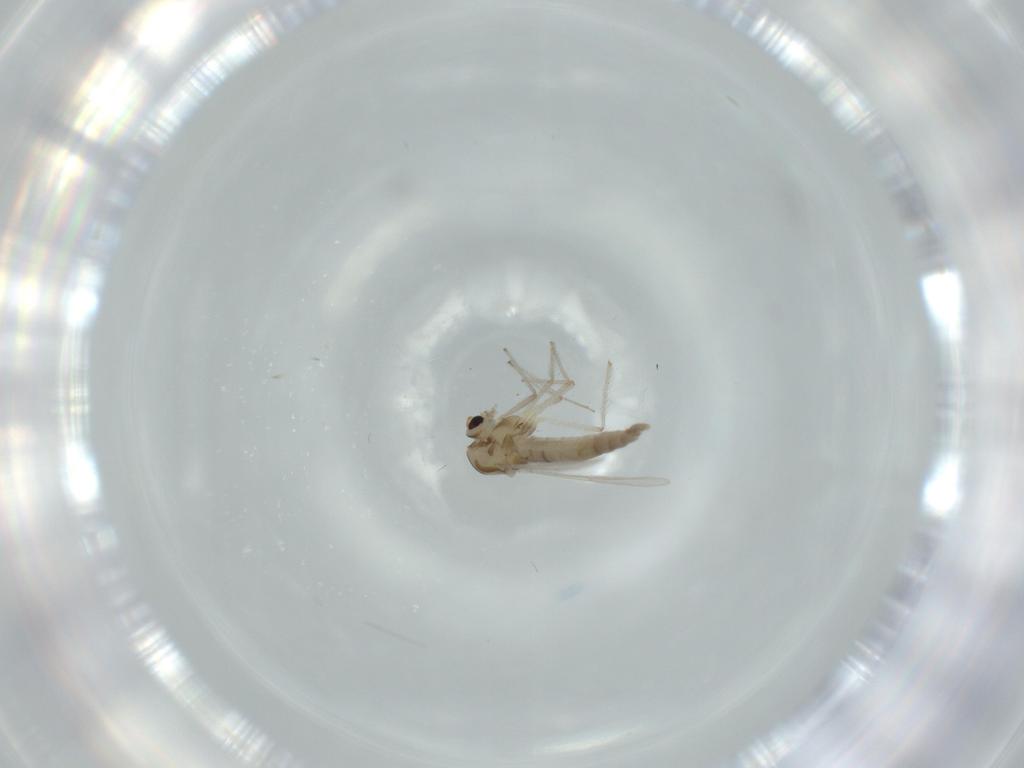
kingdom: Animalia
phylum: Arthropoda
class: Insecta
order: Diptera
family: Chironomidae
